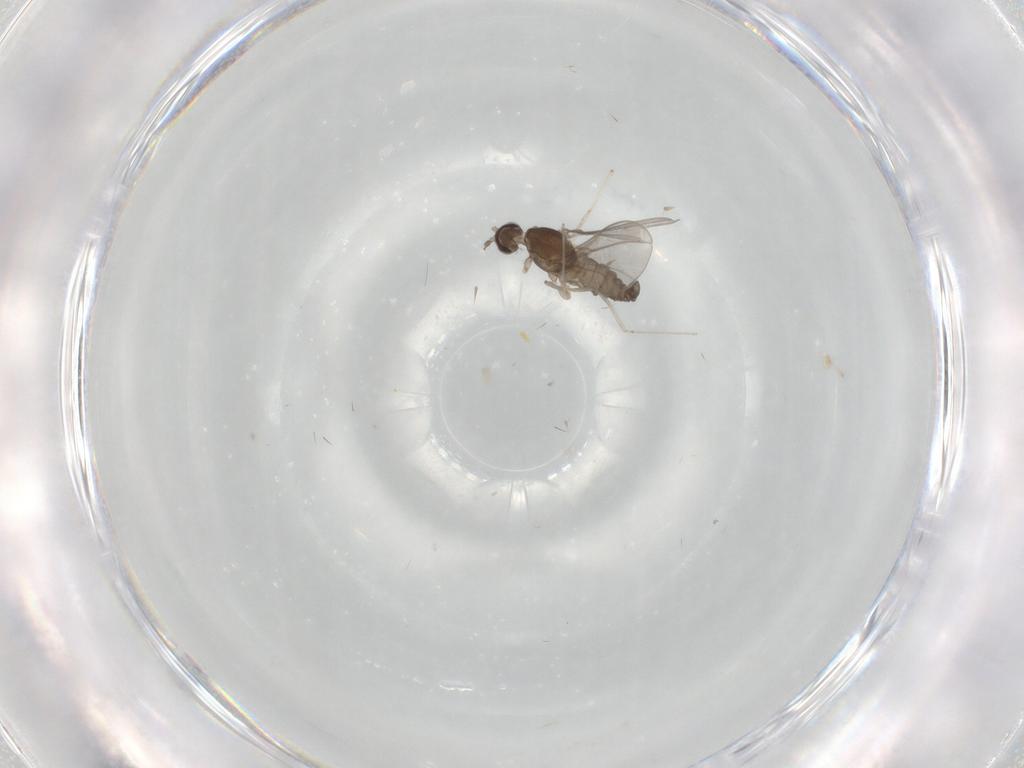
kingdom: Animalia
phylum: Arthropoda
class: Insecta
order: Diptera
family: Cecidomyiidae
